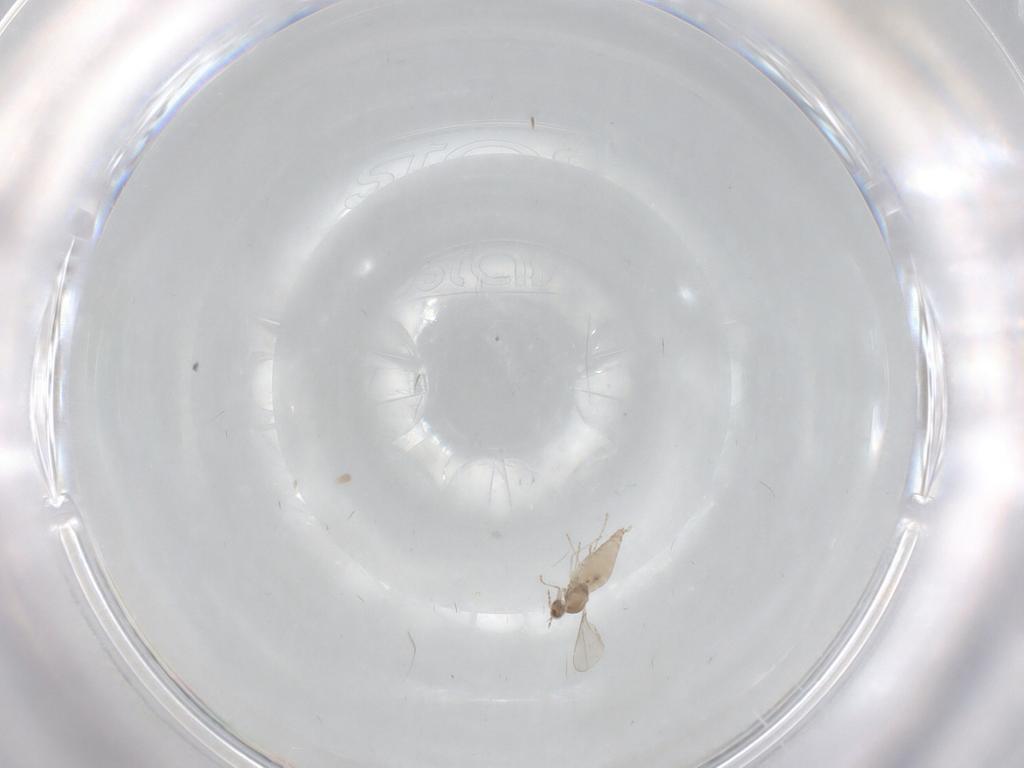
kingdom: Animalia
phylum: Arthropoda
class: Insecta
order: Diptera
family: Cecidomyiidae
